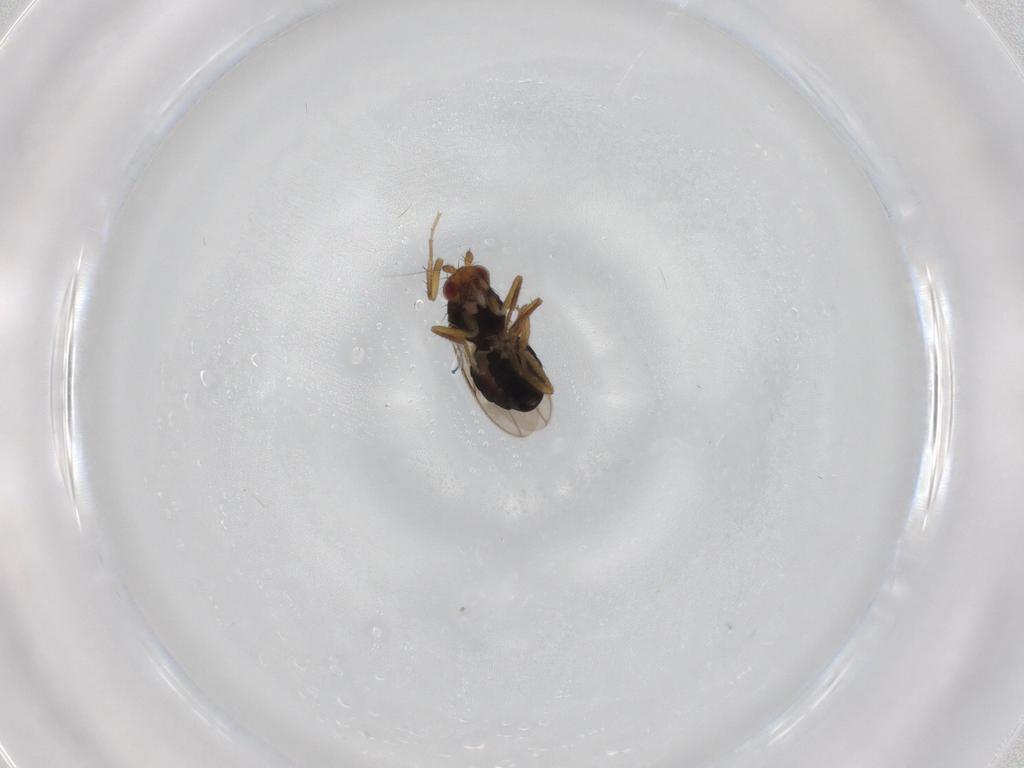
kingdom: Animalia
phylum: Arthropoda
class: Insecta
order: Diptera
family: Sphaeroceridae
